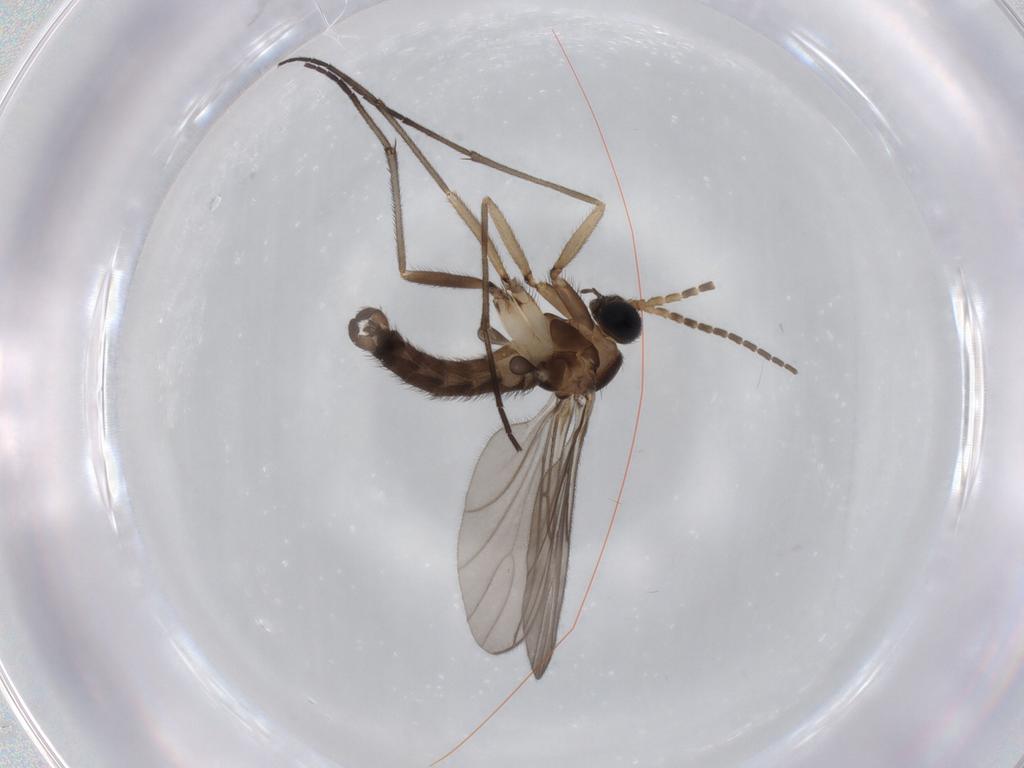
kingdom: Animalia
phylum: Arthropoda
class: Insecta
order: Diptera
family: Sciaridae
